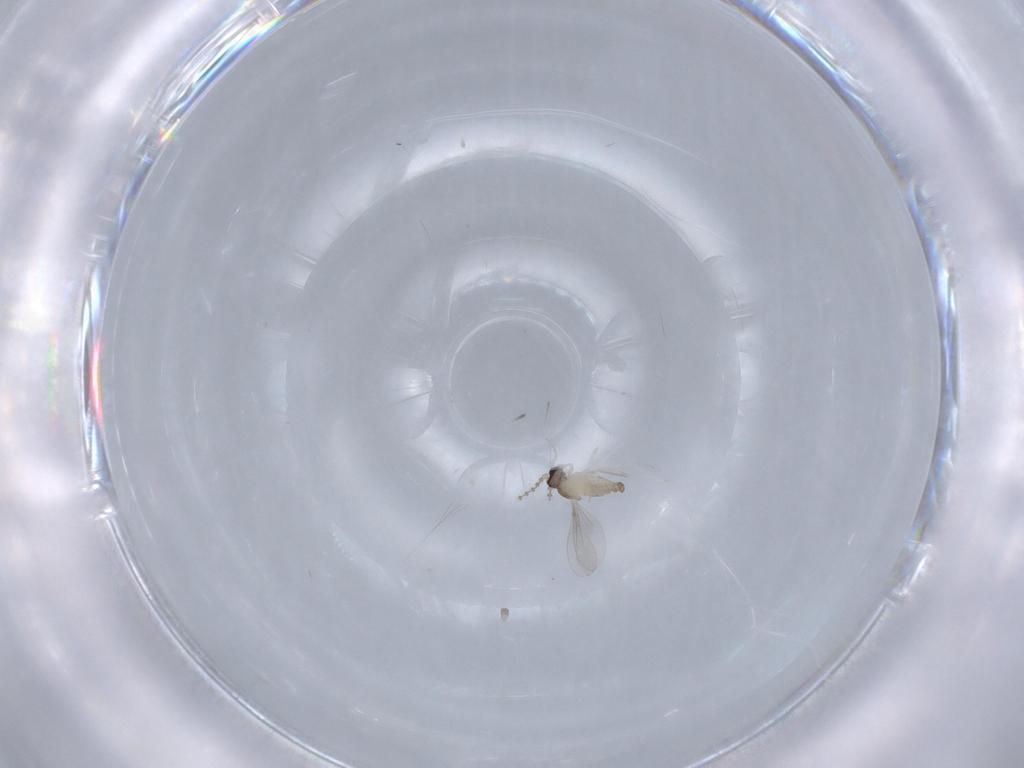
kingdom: Animalia
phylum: Arthropoda
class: Insecta
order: Diptera
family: Cecidomyiidae
